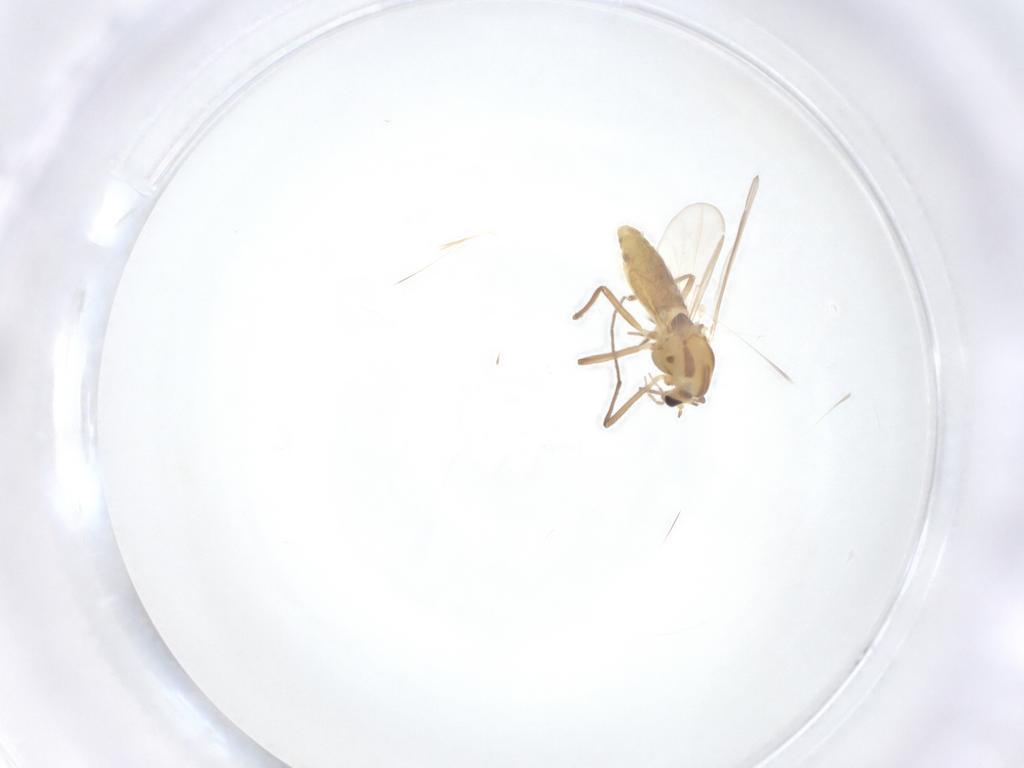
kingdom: Animalia
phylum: Arthropoda
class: Insecta
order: Diptera
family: Chironomidae
